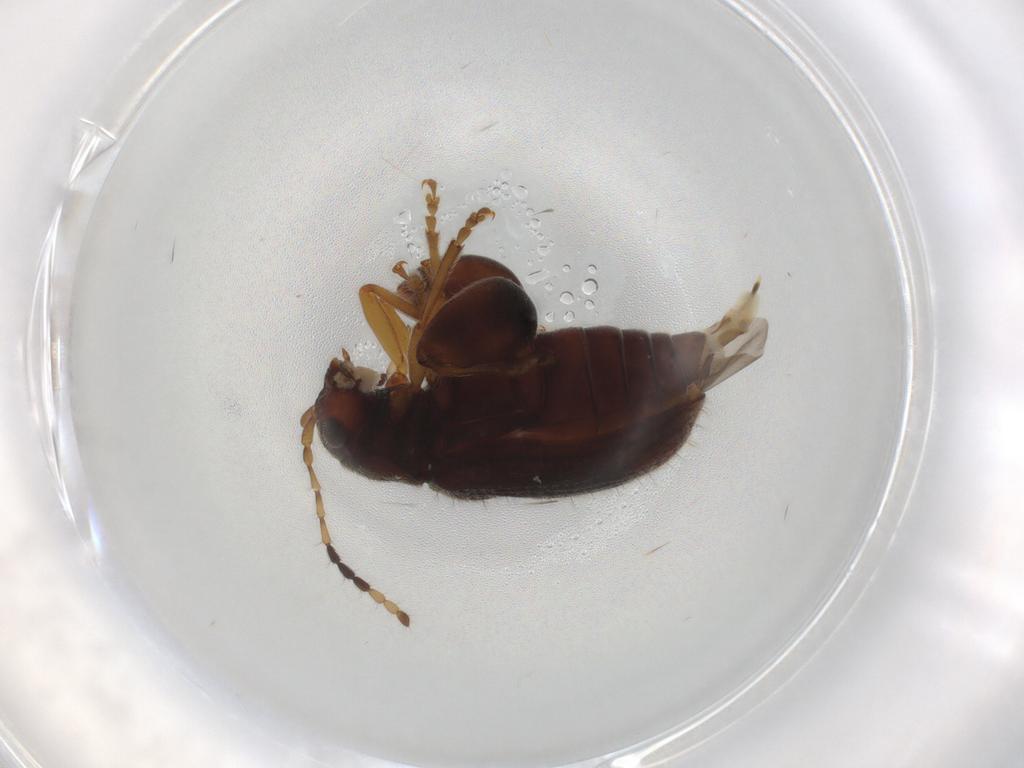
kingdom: Animalia
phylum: Arthropoda
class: Insecta
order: Coleoptera
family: Chrysomelidae
